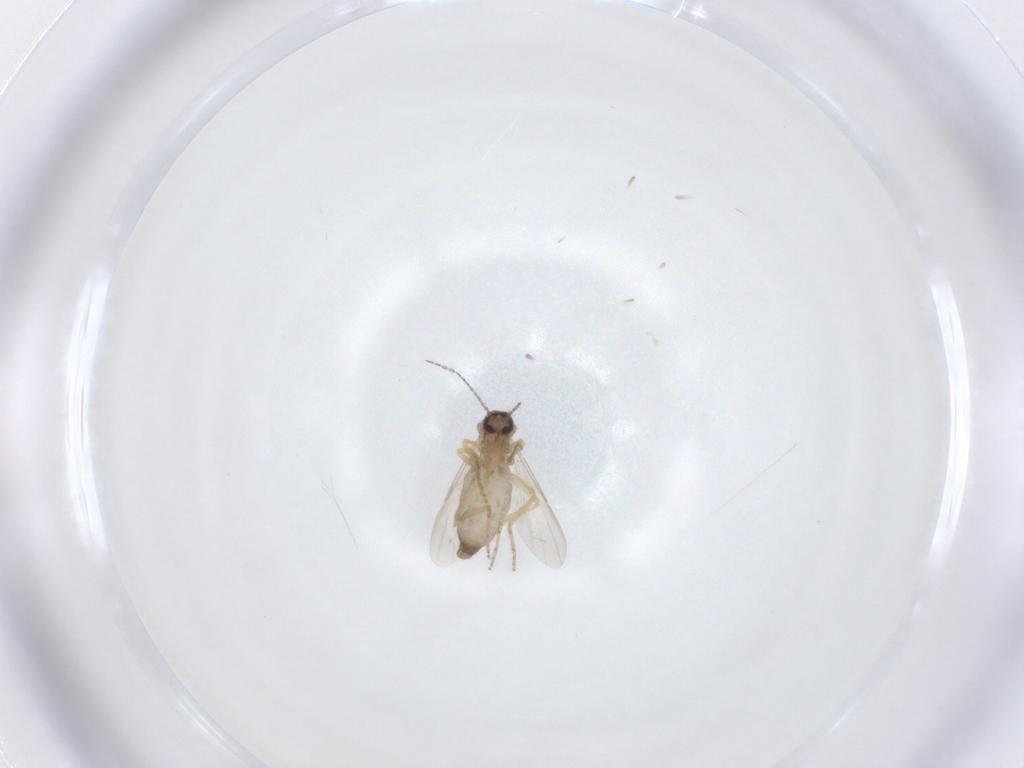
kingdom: Animalia
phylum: Arthropoda
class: Insecta
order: Diptera
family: Ceratopogonidae
